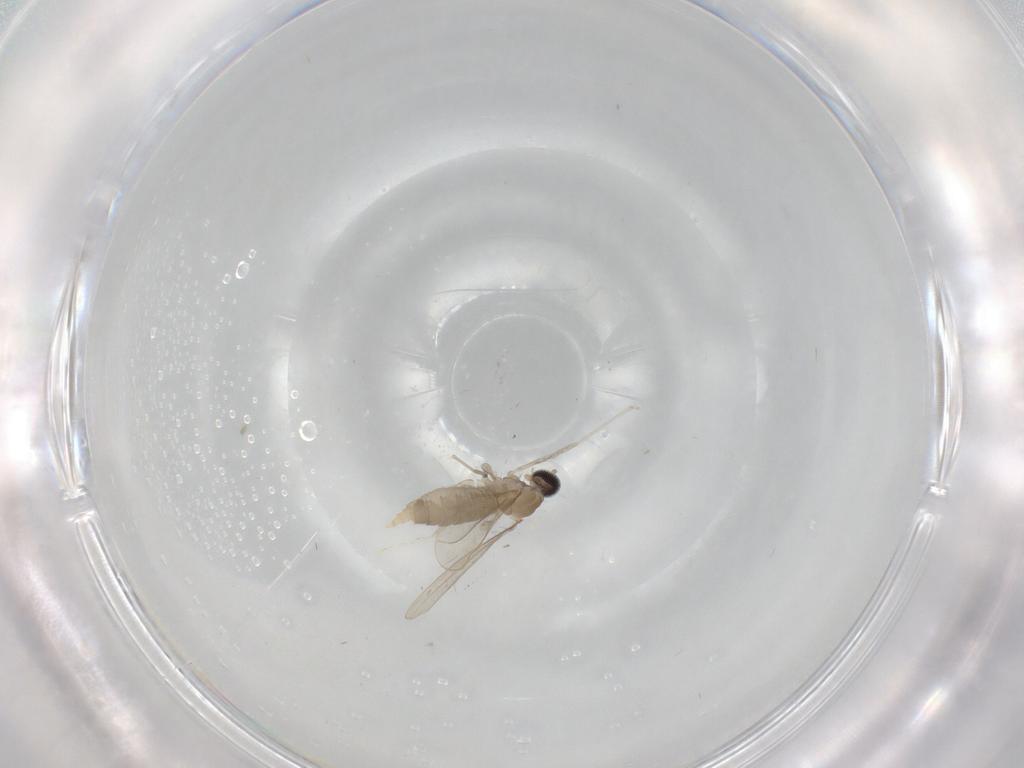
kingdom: Animalia
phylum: Arthropoda
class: Insecta
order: Diptera
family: Cecidomyiidae
